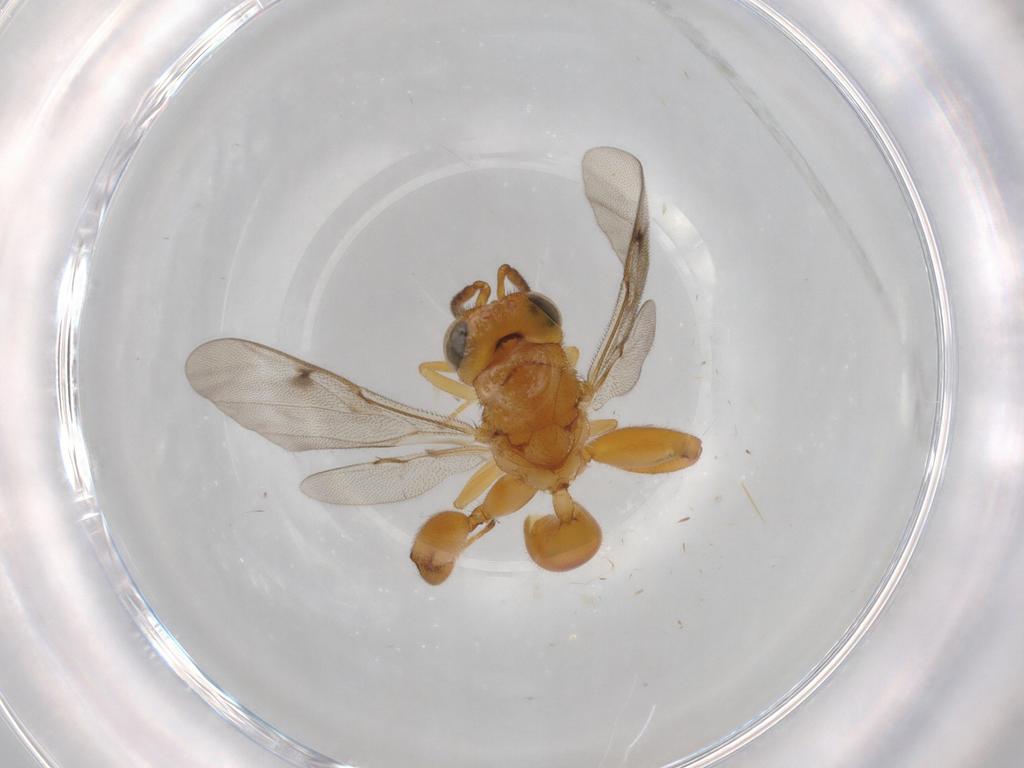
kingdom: Animalia
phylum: Arthropoda
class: Insecta
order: Hymenoptera
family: Chalcididae
